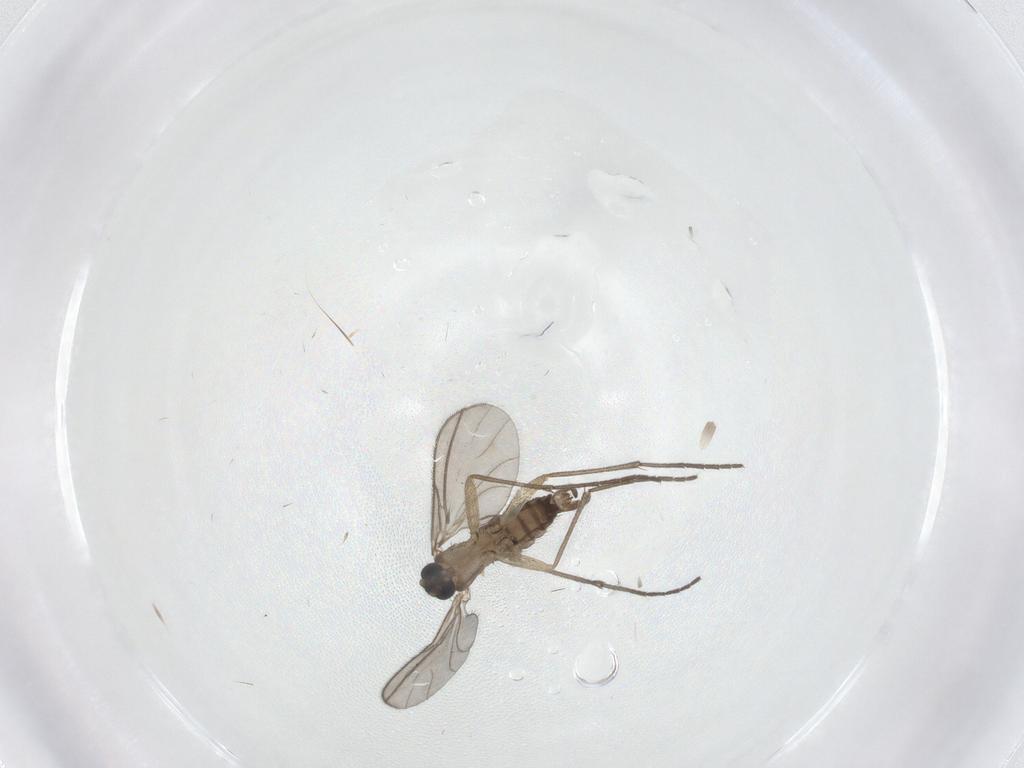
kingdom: Animalia
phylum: Arthropoda
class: Insecta
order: Diptera
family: Sciaridae
